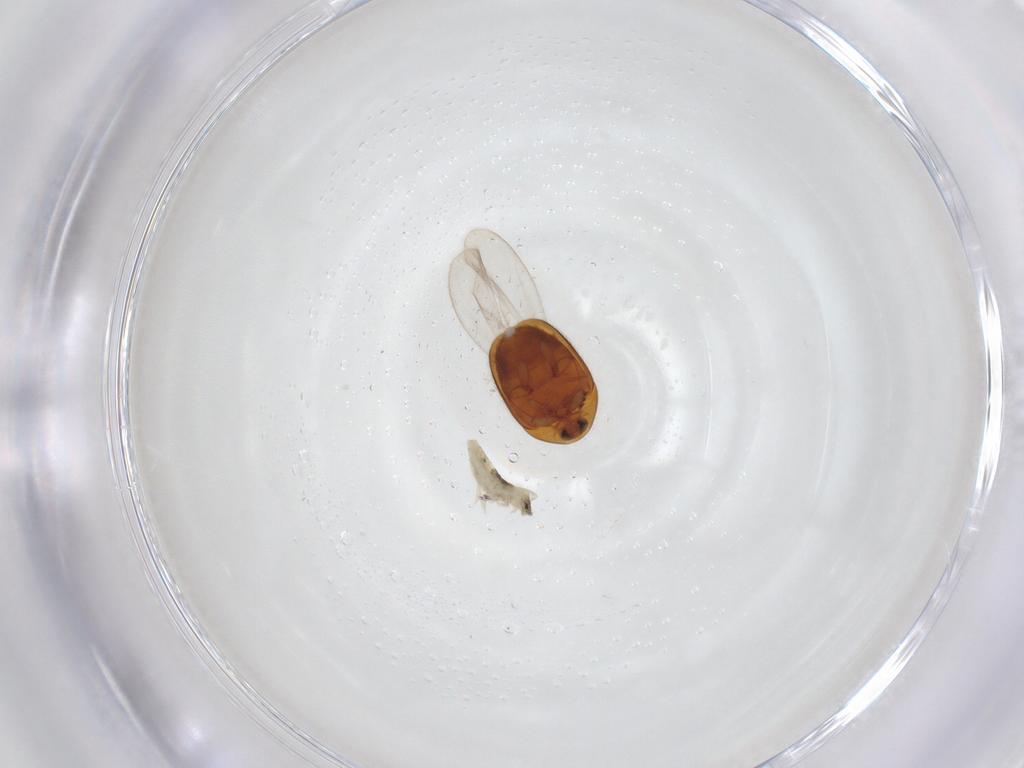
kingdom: Animalia
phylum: Arthropoda
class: Insecta
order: Coleoptera
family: Corylophidae
